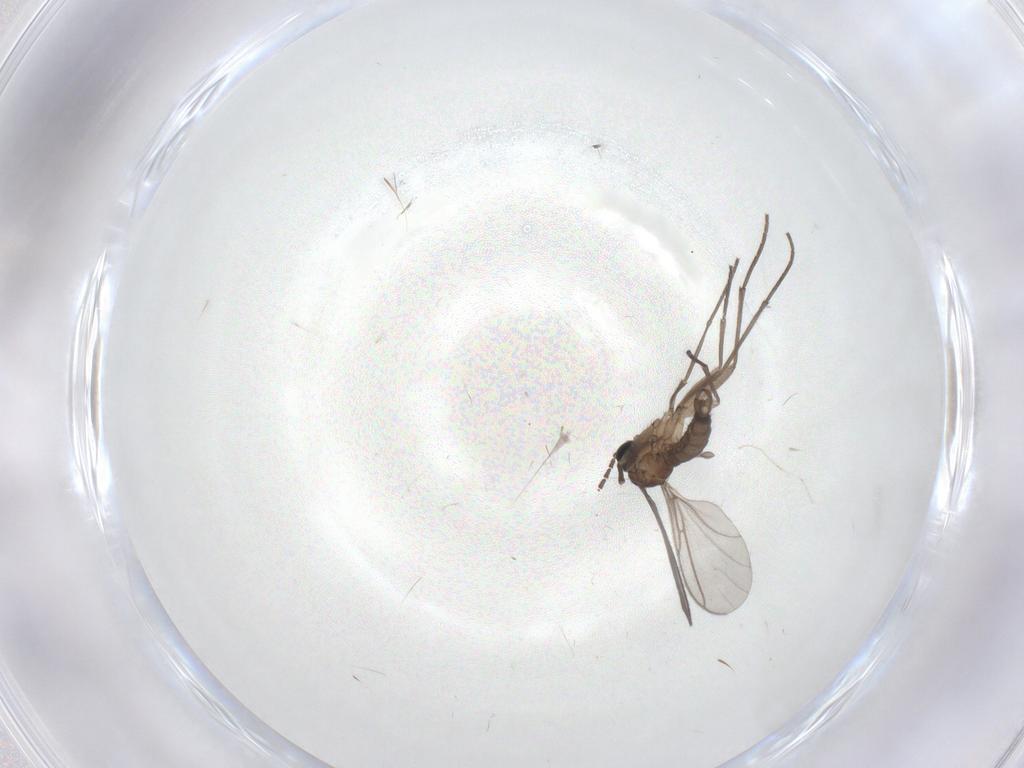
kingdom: Animalia
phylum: Arthropoda
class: Insecta
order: Diptera
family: Sciaridae
